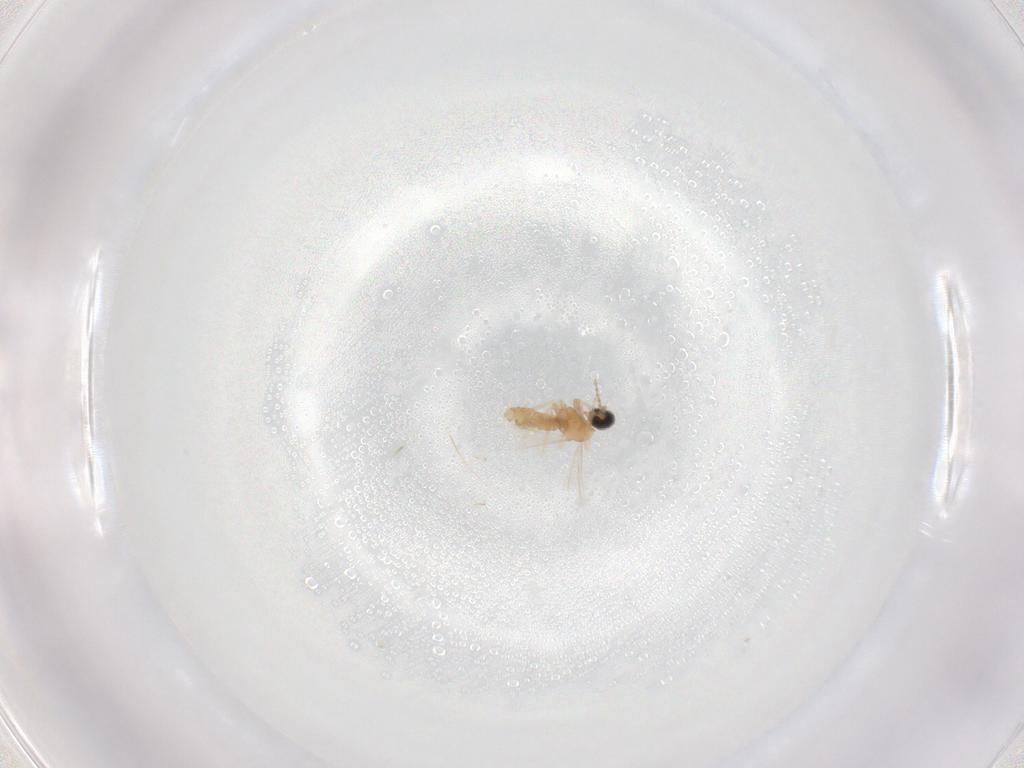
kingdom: Animalia
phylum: Arthropoda
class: Insecta
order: Diptera
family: Cecidomyiidae
